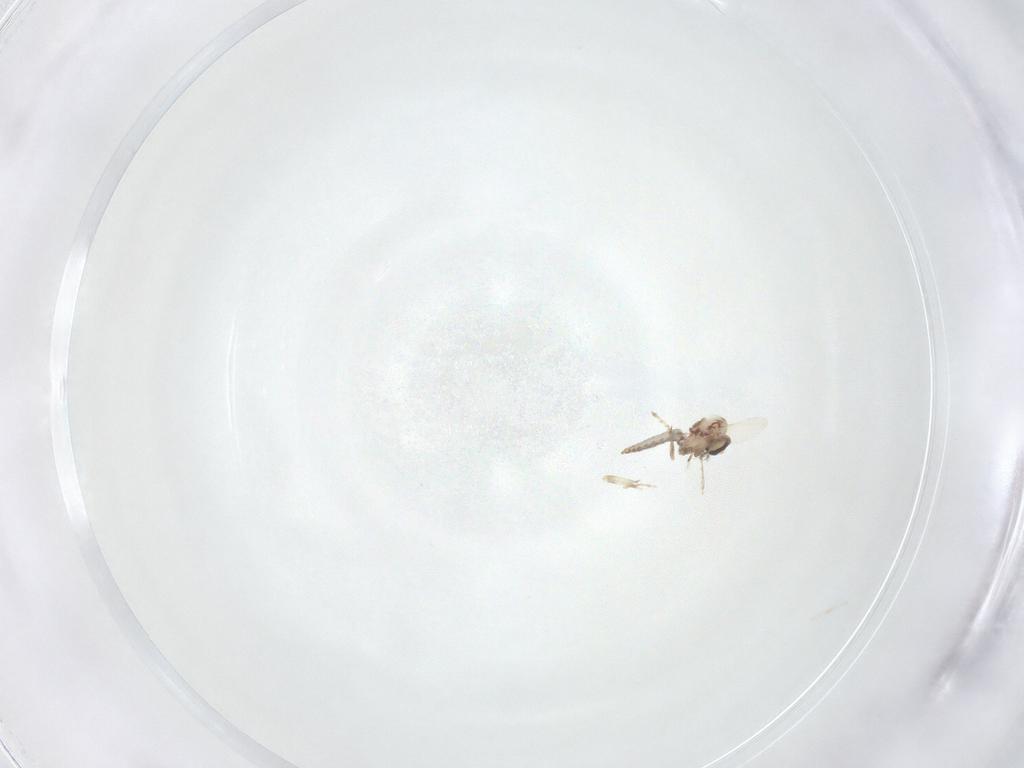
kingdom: Animalia
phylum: Arthropoda
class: Insecta
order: Diptera
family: Ceratopogonidae
